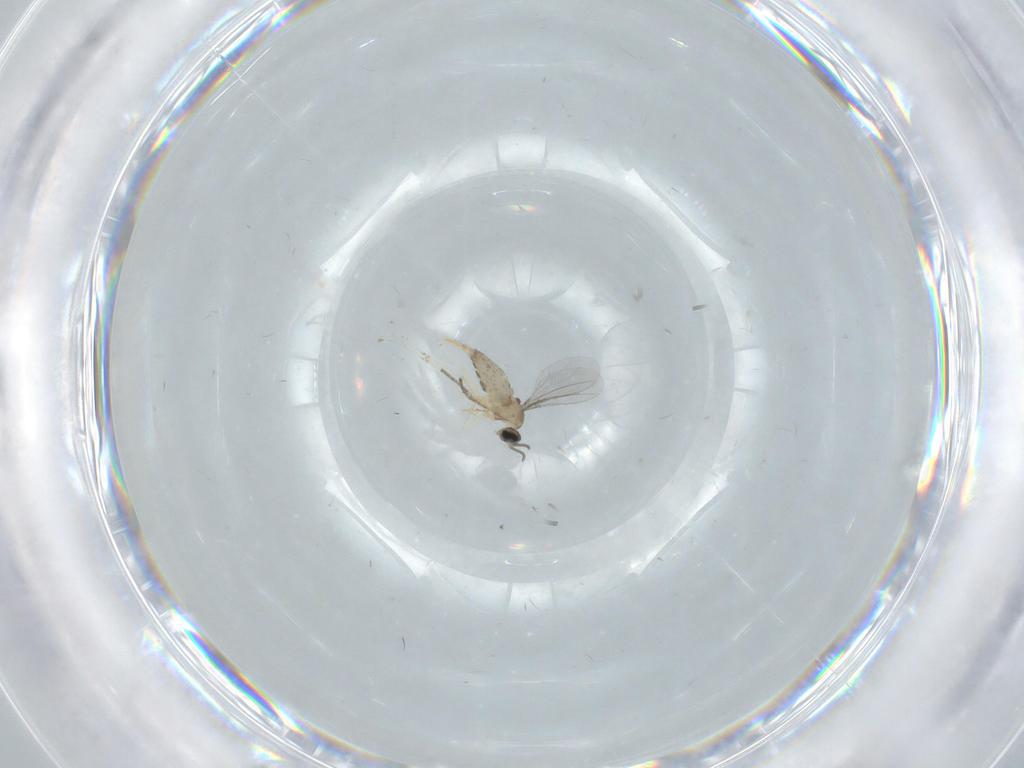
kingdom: Animalia
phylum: Arthropoda
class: Insecta
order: Diptera
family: Cecidomyiidae
